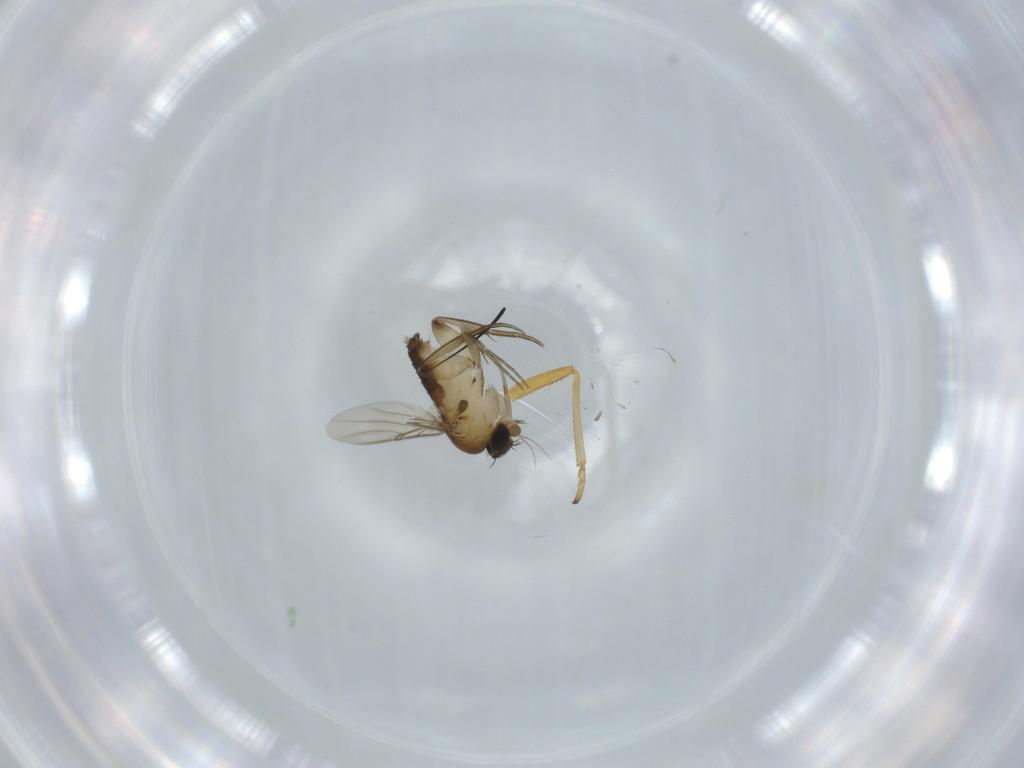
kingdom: Animalia
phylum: Arthropoda
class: Insecta
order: Diptera
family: Phoridae
